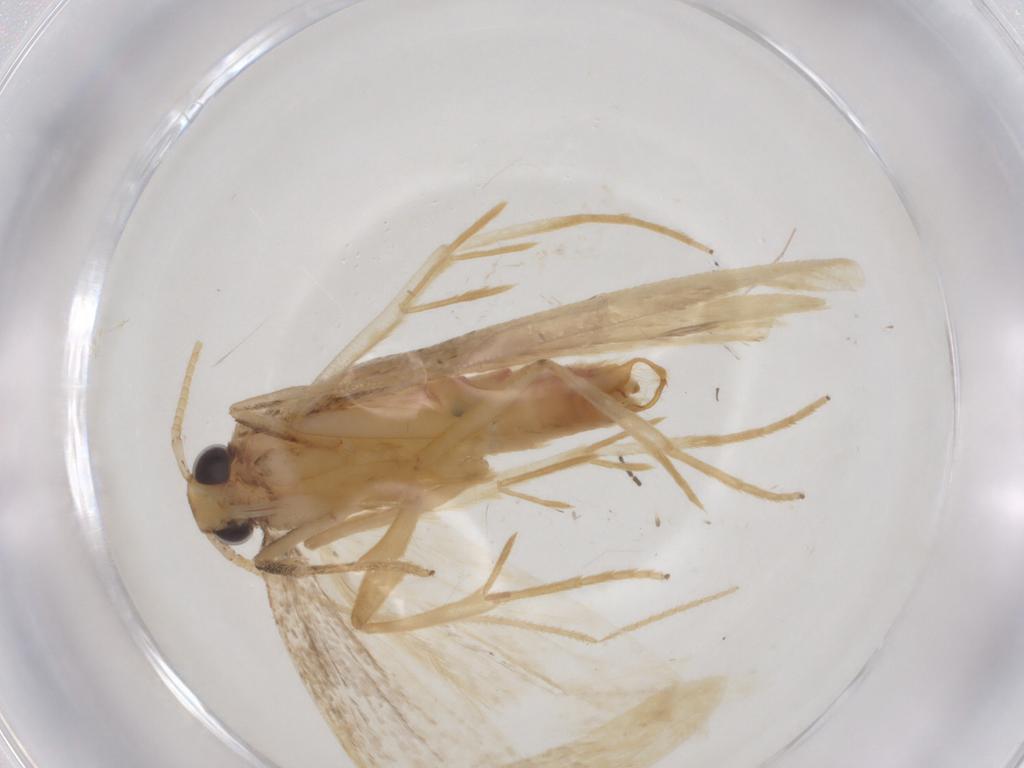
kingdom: Animalia
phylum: Arthropoda
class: Insecta
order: Lepidoptera
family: Lecithoceridae
